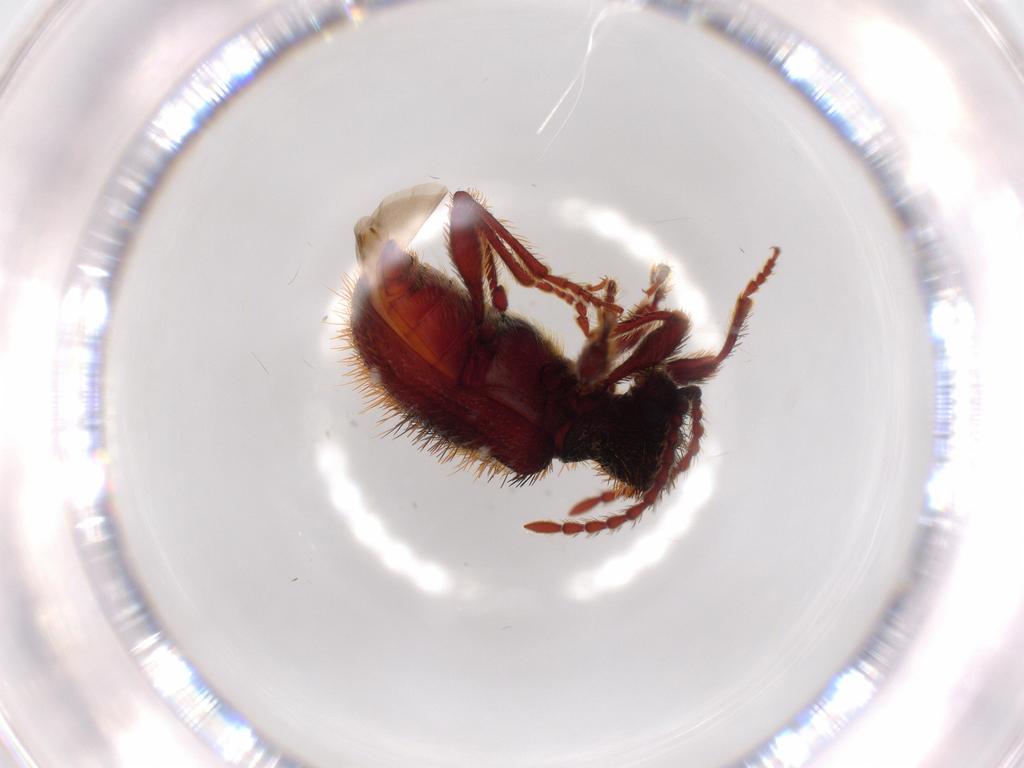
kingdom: Animalia
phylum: Arthropoda
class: Insecta
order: Coleoptera
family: Ptinidae
